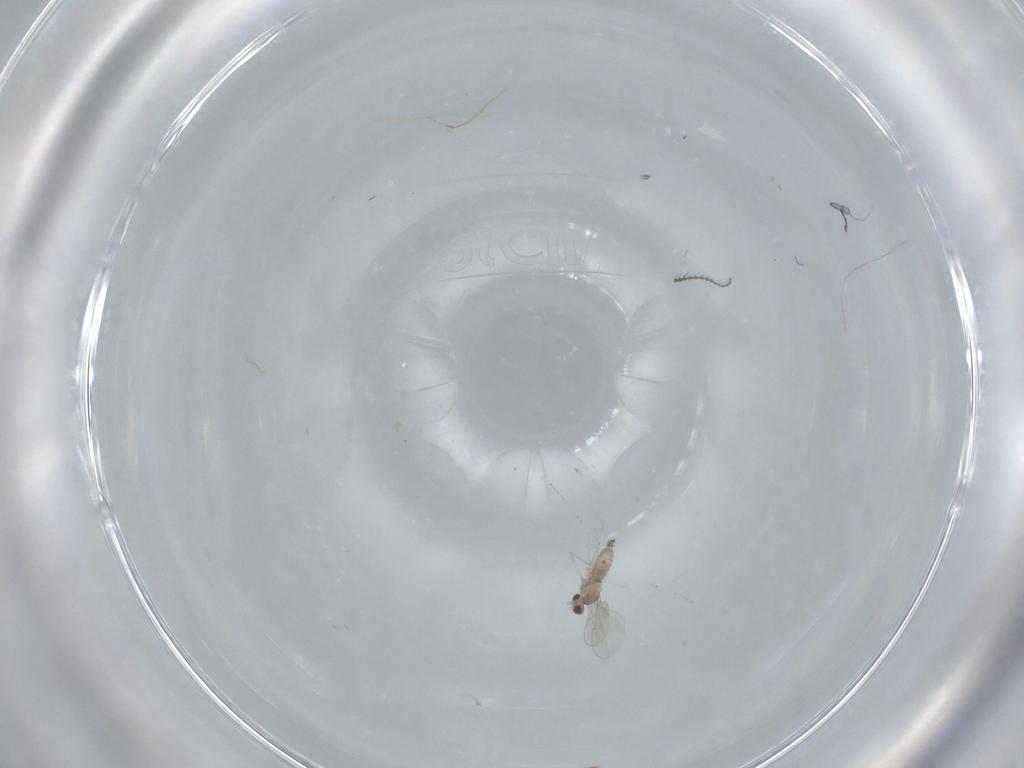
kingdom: Animalia
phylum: Arthropoda
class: Insecta
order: Diptera
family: Cecidomyiidae
